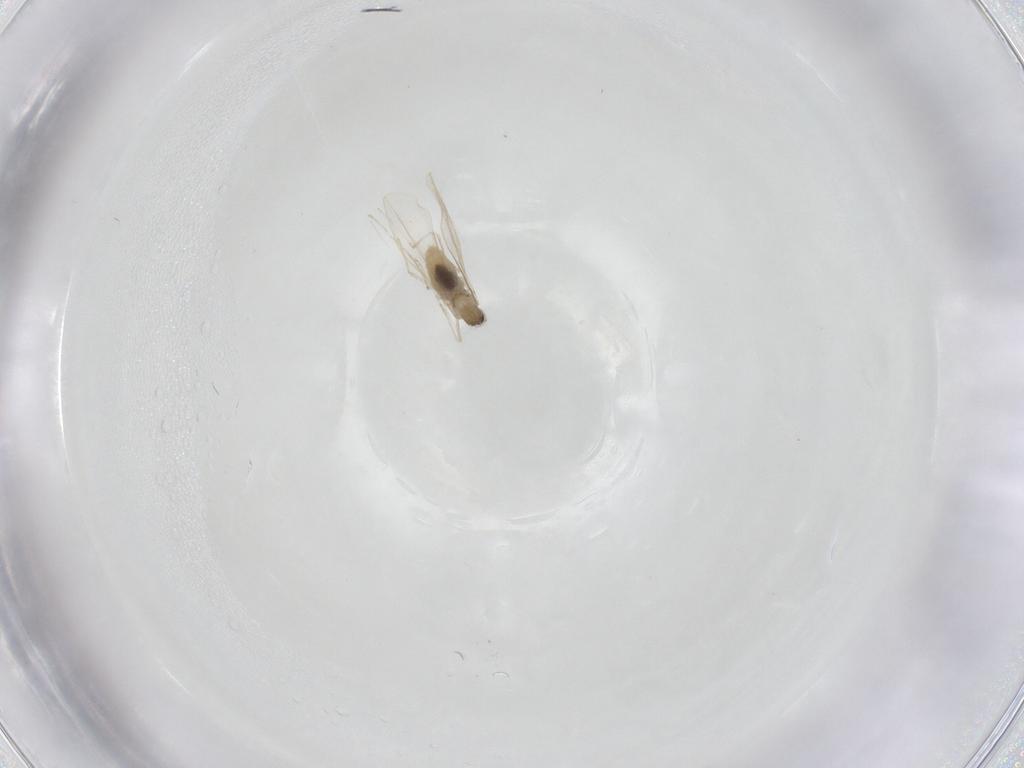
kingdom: Animalia
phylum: Arthropoda
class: Insecta
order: Diptera
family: Cecidomyiidae
